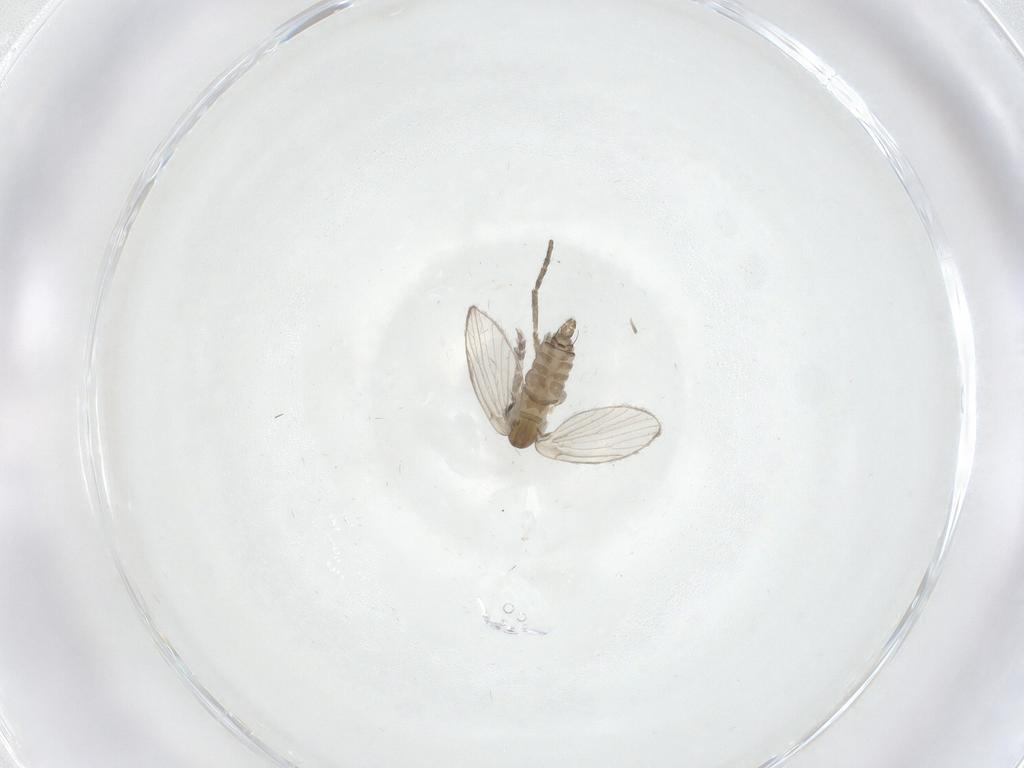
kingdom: Animalia
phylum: Arthropoda
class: Insecta
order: Diptera
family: Psychodidae
